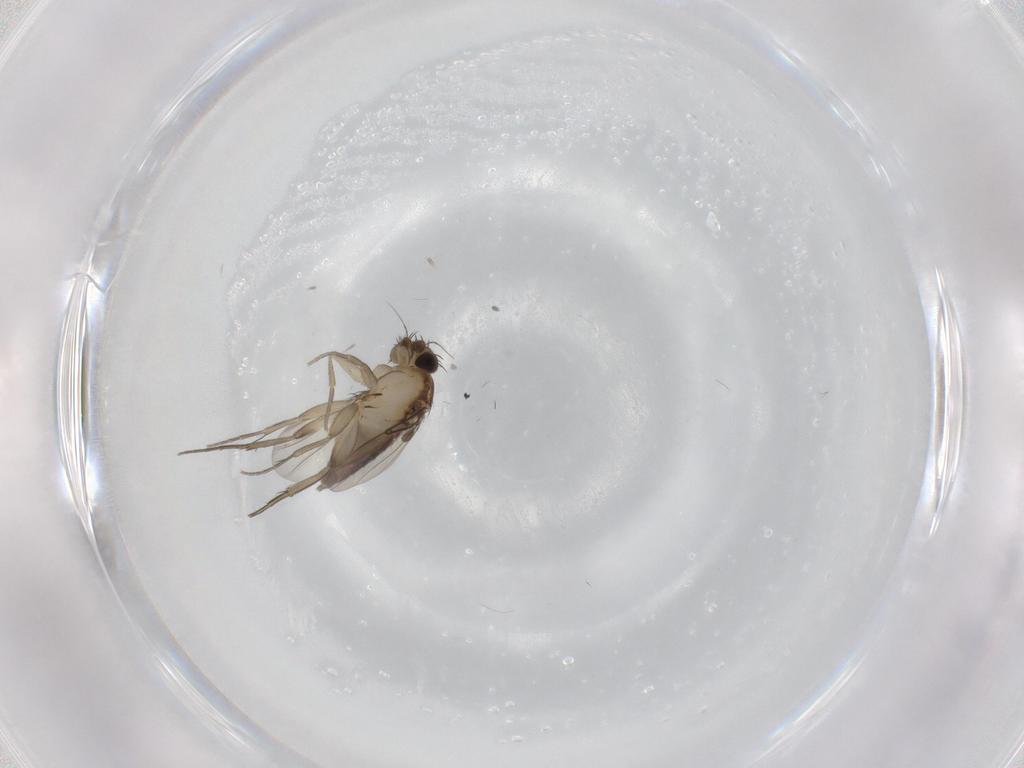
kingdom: Animalia
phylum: Arthropoda
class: Insecta
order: Diptera
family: Phoridae
